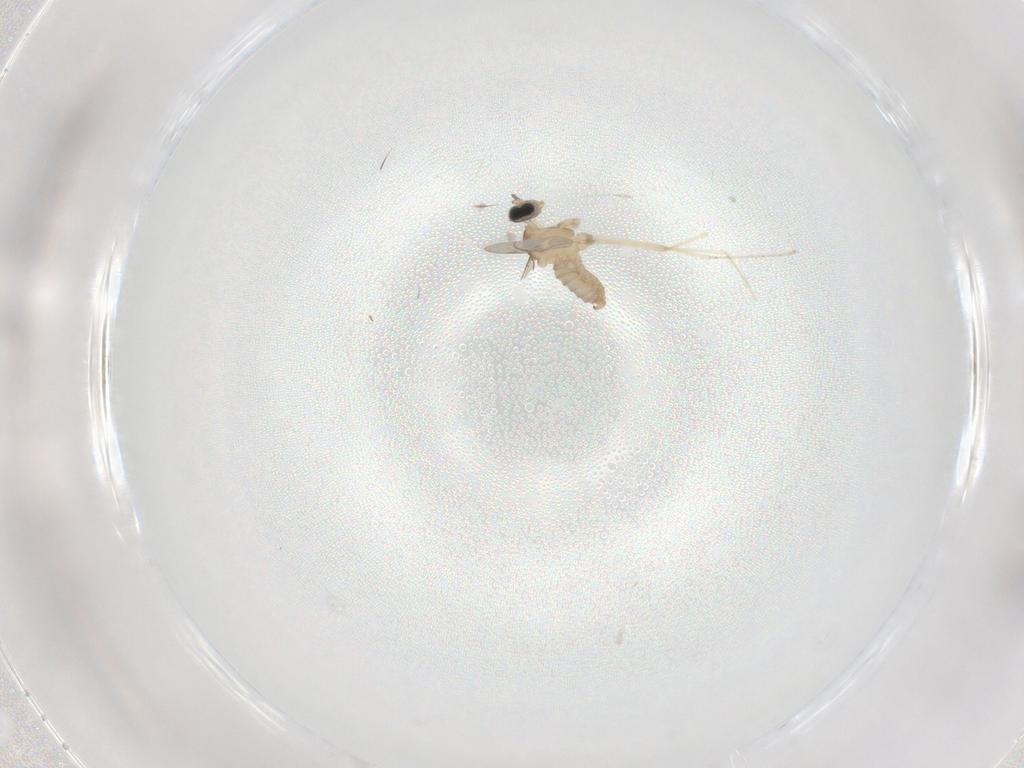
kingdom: Animalia
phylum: Arthropoda
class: Insecta
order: Diptera
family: Cecidomyiidae
